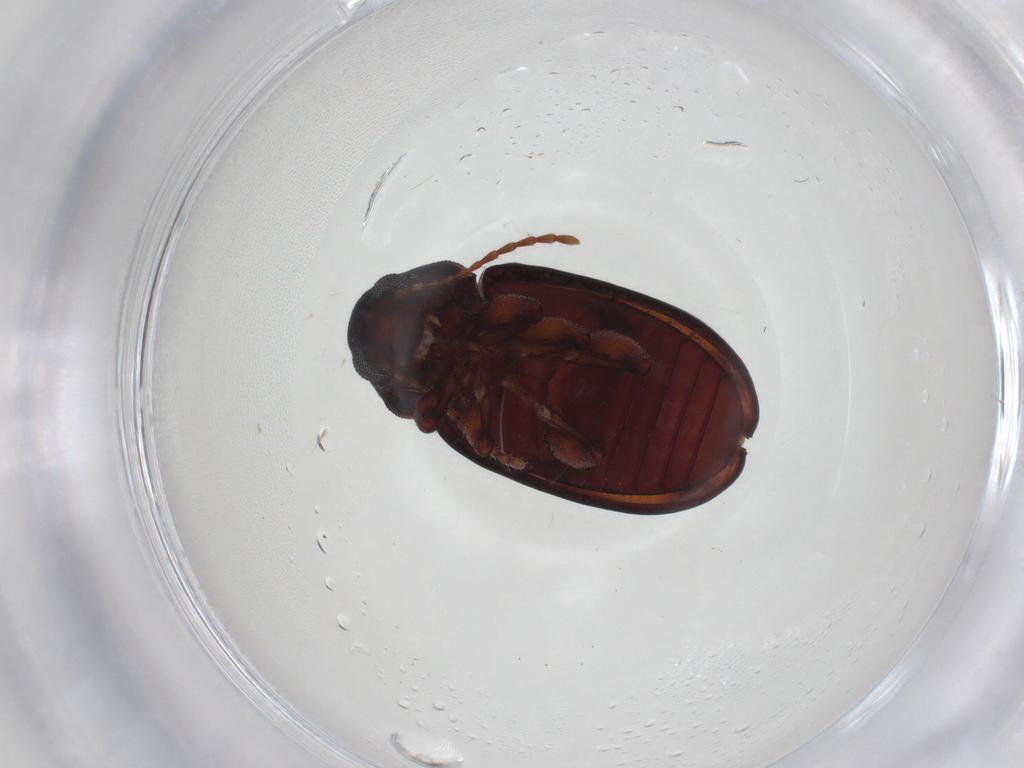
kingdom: Animalia
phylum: Arthropoda
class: Insecta
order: Coleoptera
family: Chrysomelidae
